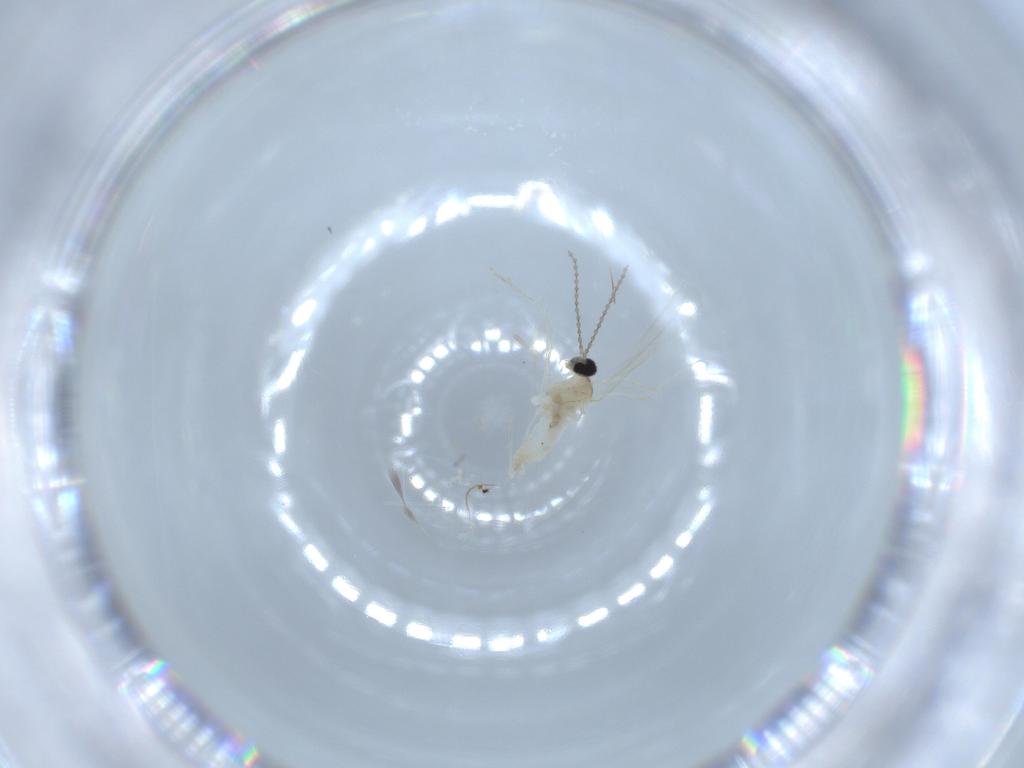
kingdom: Animalia
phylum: Arthropoda
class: Insecta
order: Diptera
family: Cecidomyiidae
